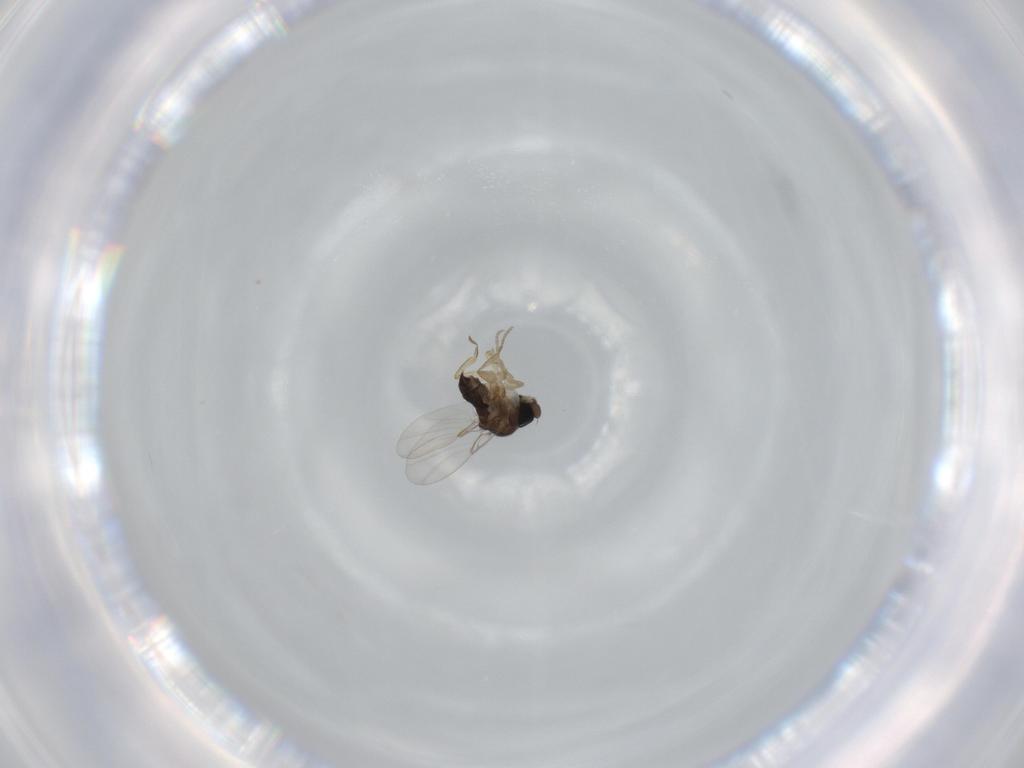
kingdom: Animalia
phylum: Arthropoda
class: Insecta
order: Diptera
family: Phoridae
